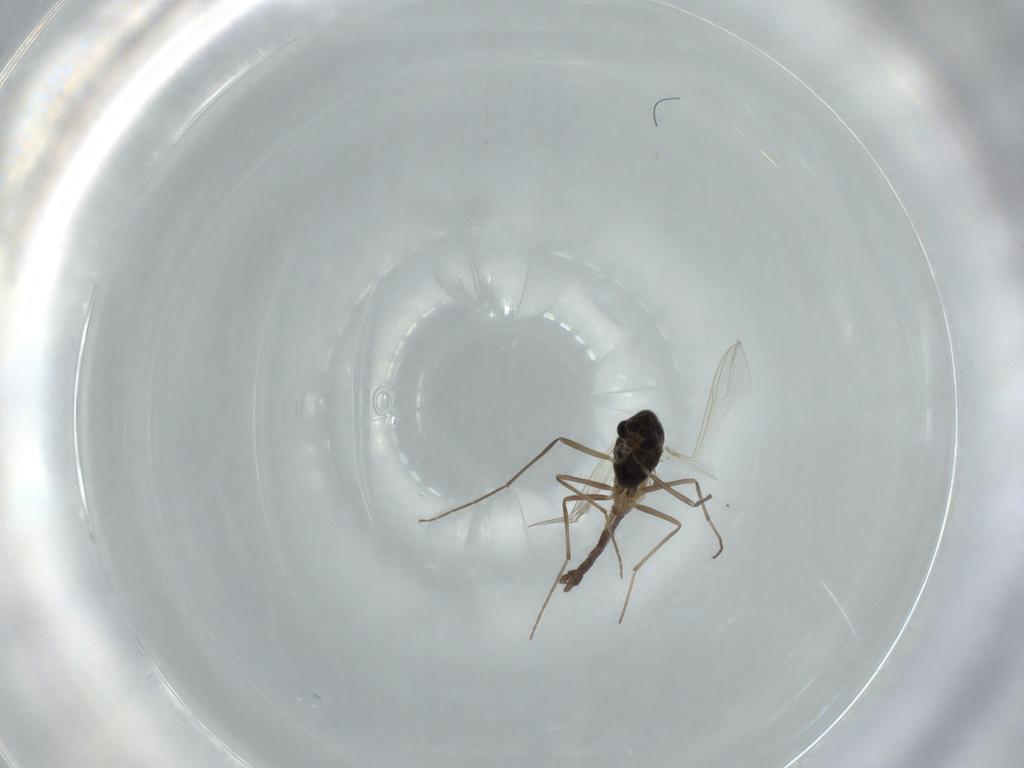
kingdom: Animalia
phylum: Arthropoda
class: Insecta
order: Diptera
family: Chironomidae
